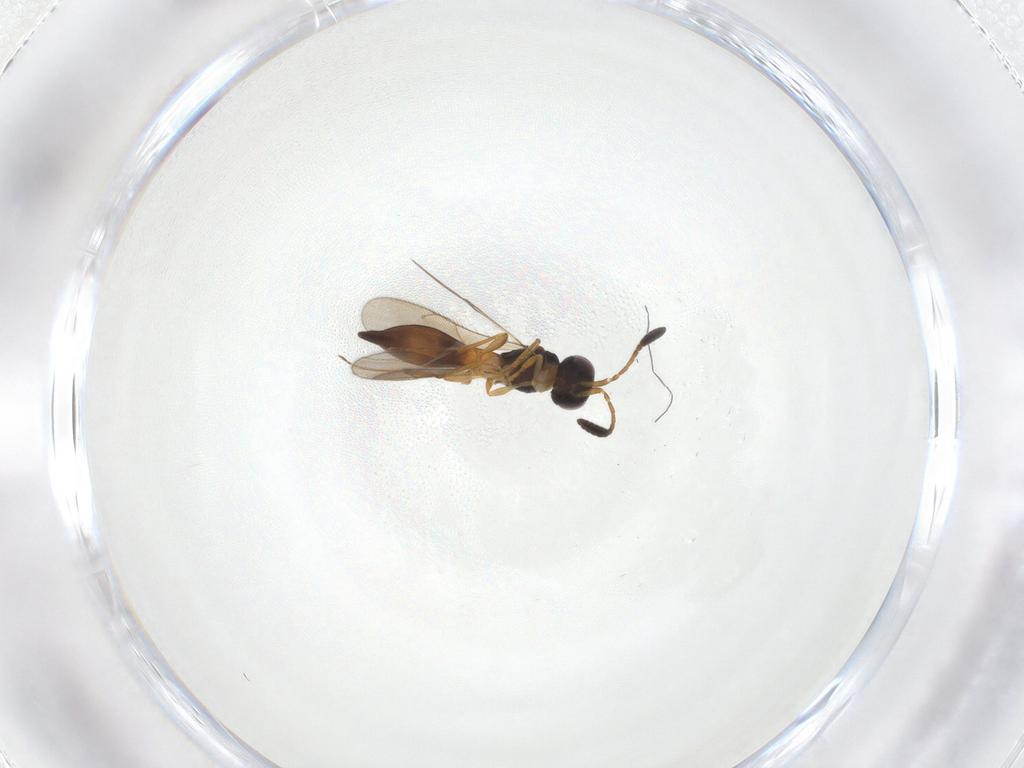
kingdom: Animalia
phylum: Arthropoda
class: Insecta
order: Hymenoptera
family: Scelionidae
